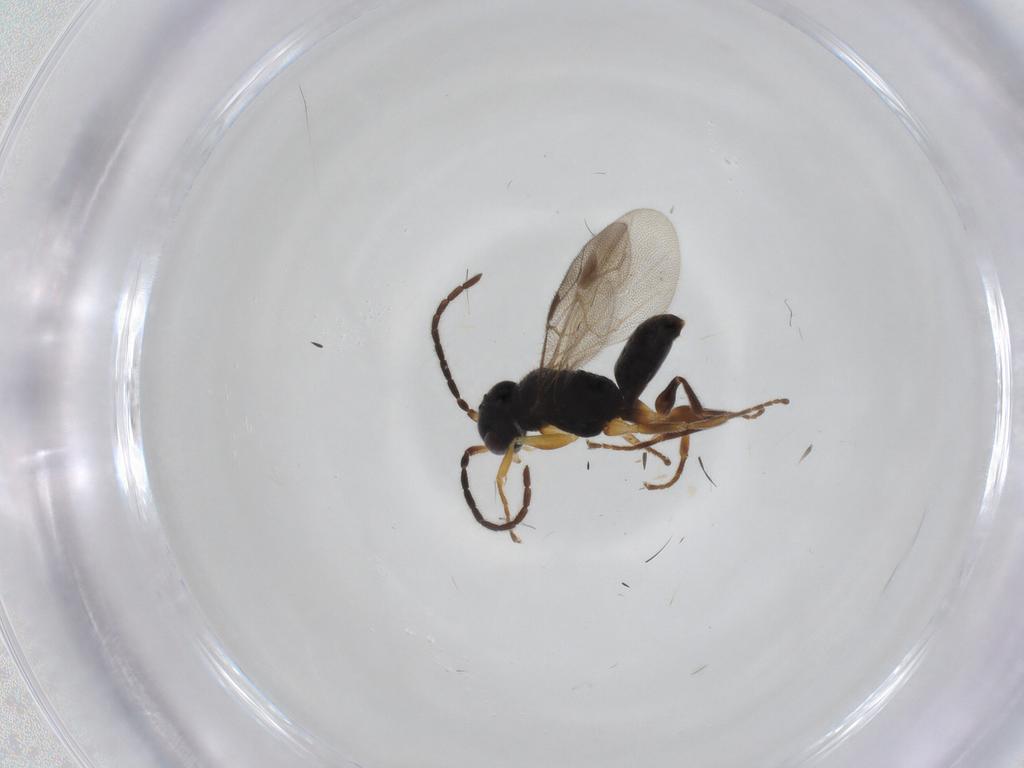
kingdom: Animalia
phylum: Arthropoda
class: Insecta
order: Hymenoptera
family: Dryinidae
